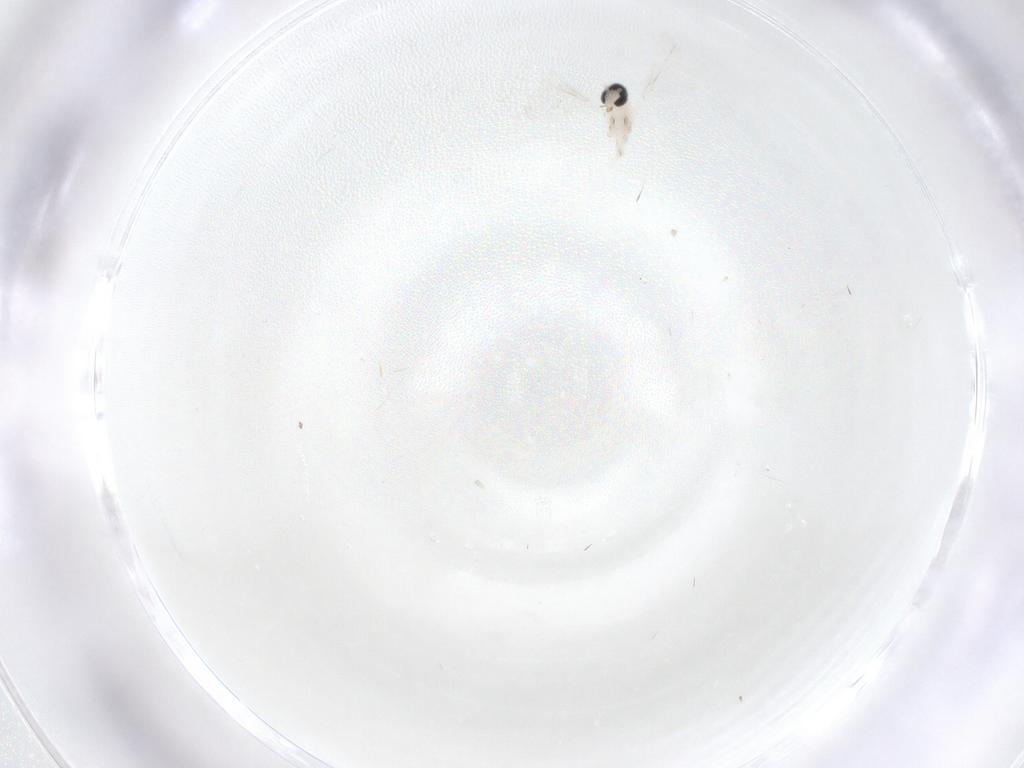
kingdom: Animalia
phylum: Arthropoda
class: Insecta
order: Diptera
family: Cecidomyiidae
